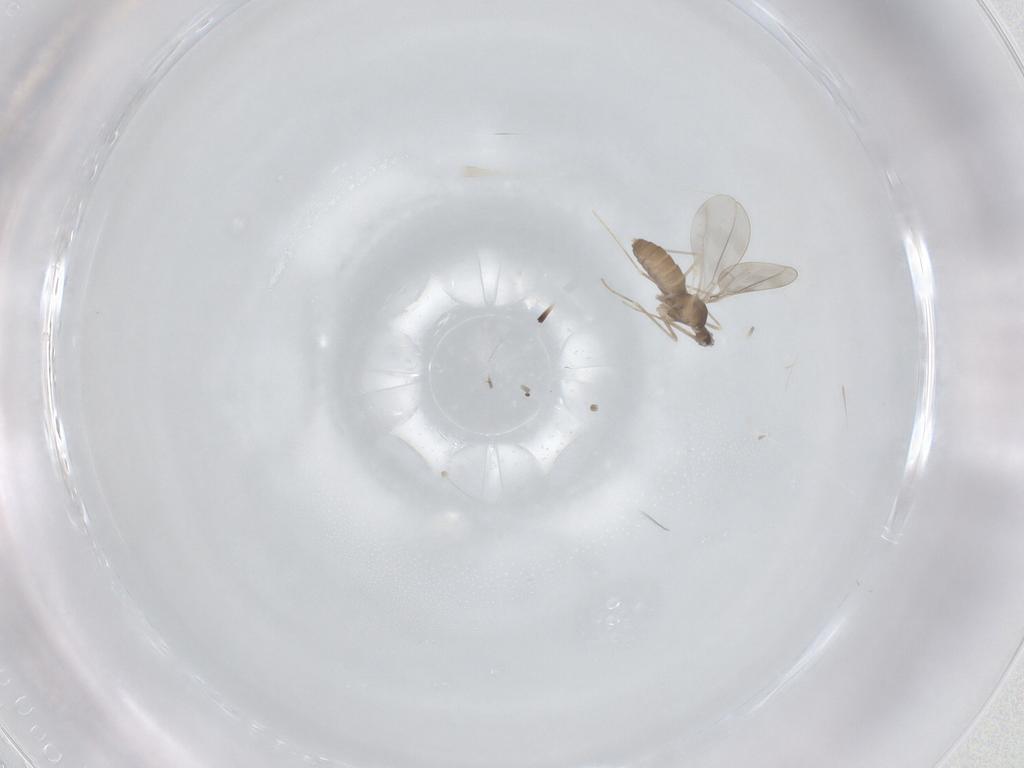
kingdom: Animalia
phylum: Arthropoda
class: Insecta
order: Diptera
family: Cecidomyiidae
